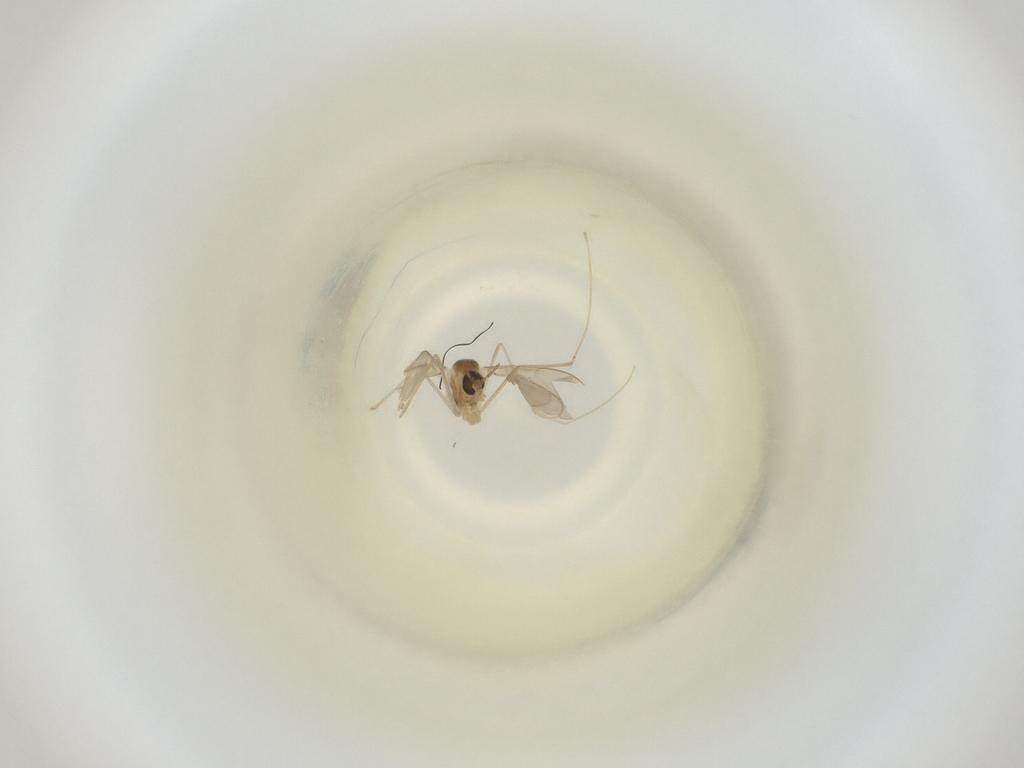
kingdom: Animalia
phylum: Arthropoda
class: Insecta
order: Diptera
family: Cecidomyiidae
